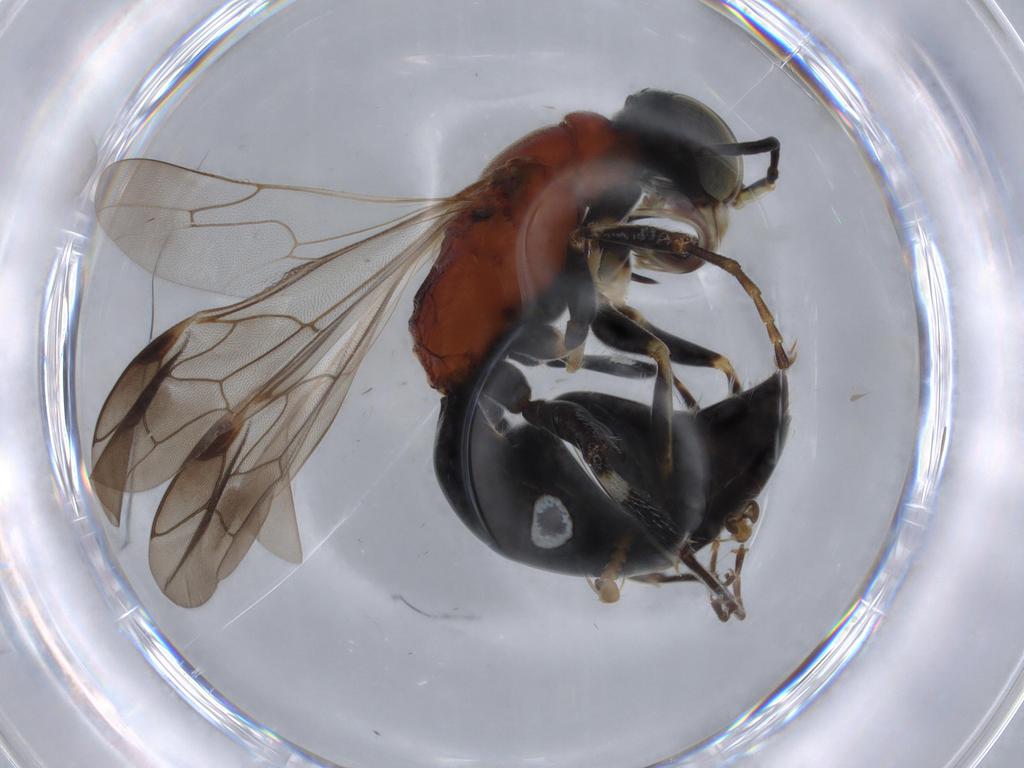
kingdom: Animalia
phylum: Arthropoda
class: Insecta
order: Hymenoptera
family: Bembicidae
